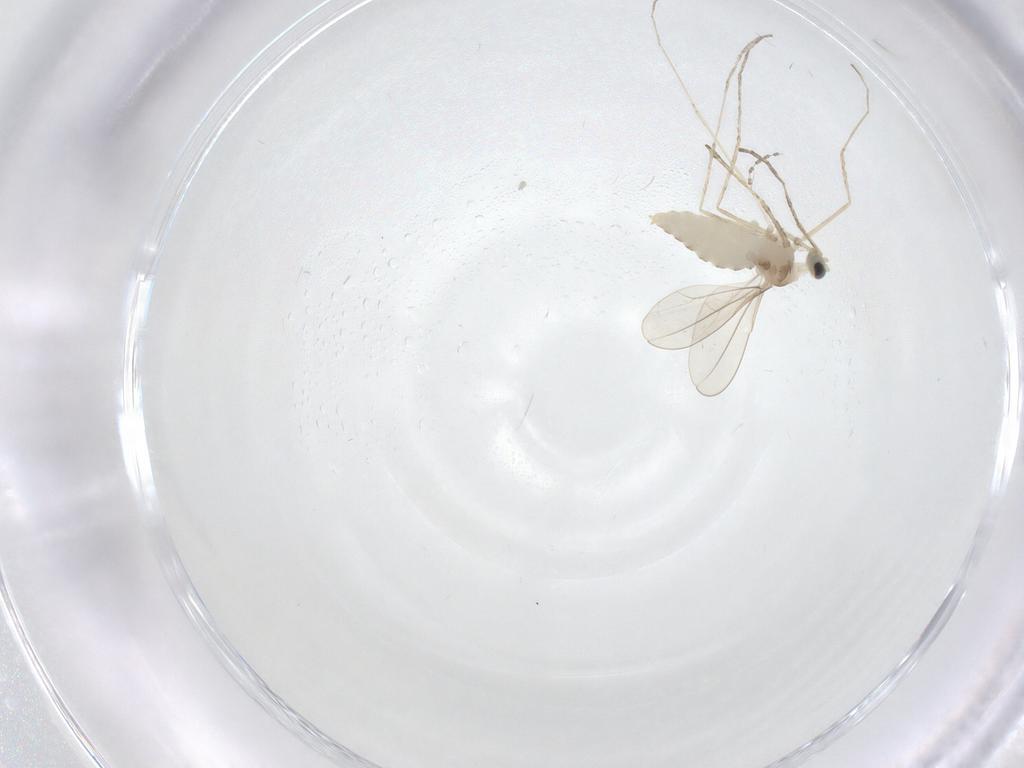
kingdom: Animalia
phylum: Arthropoda
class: Insecta
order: Diptera
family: Cecidomyiidae
